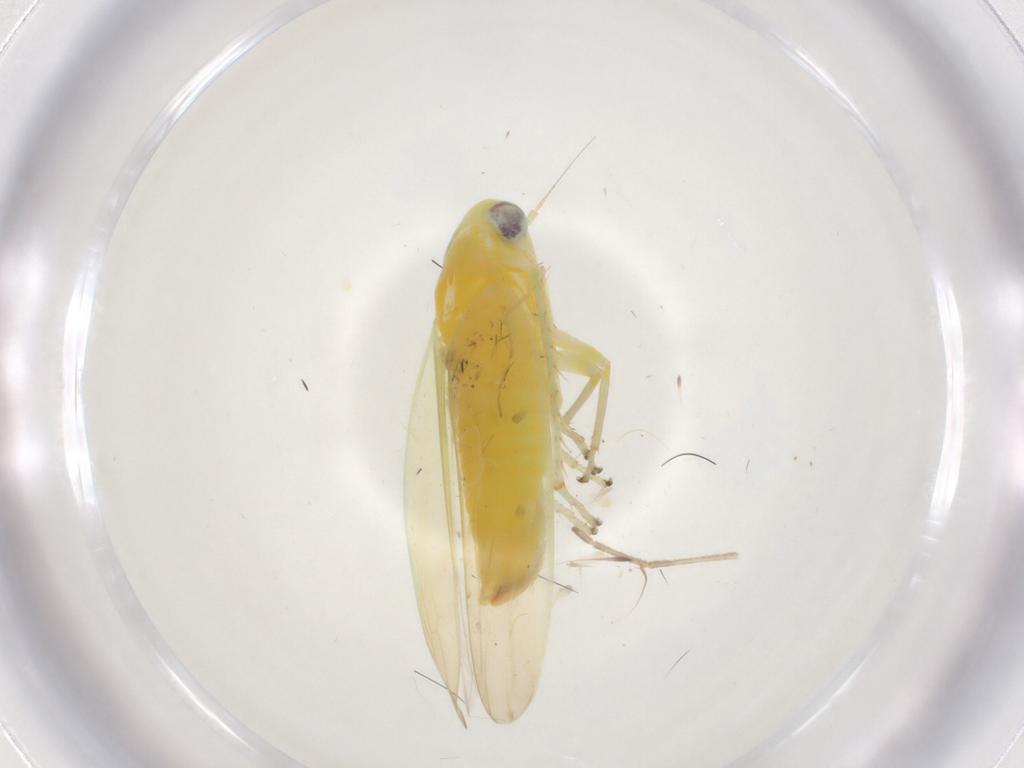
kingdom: Animalia
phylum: Arthropoda
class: Insecta
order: Hemiptera
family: Cicadellidae
